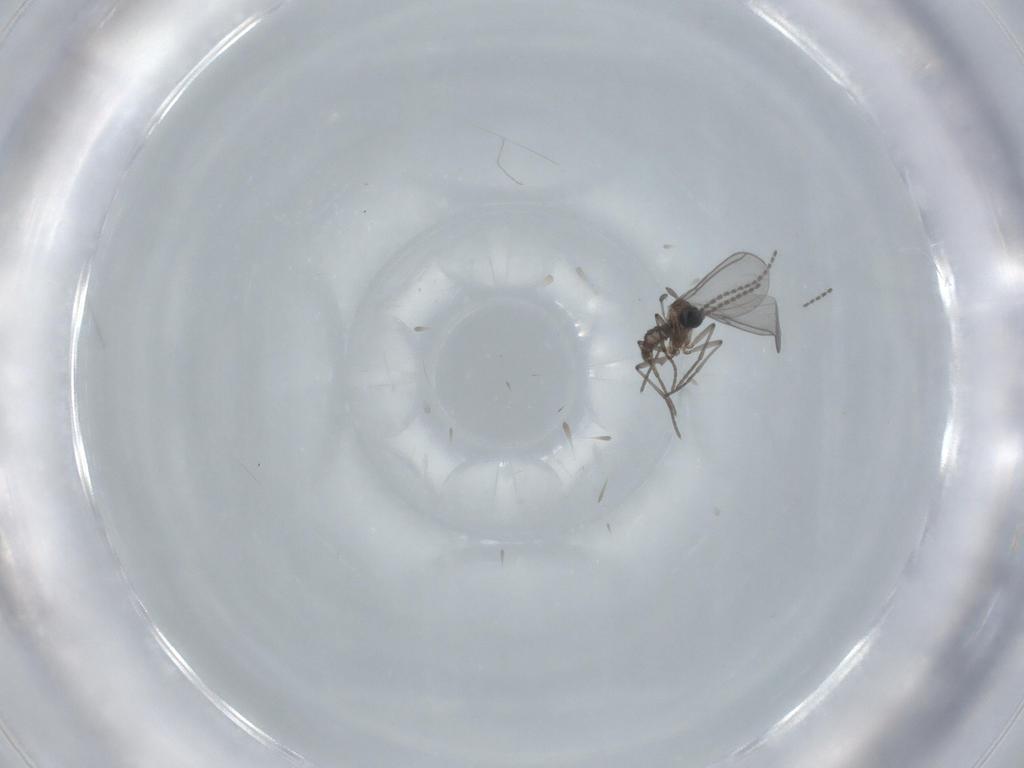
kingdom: Animalia
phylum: Arthropoda
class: Insecta
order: Diptera
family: Sciaridae
